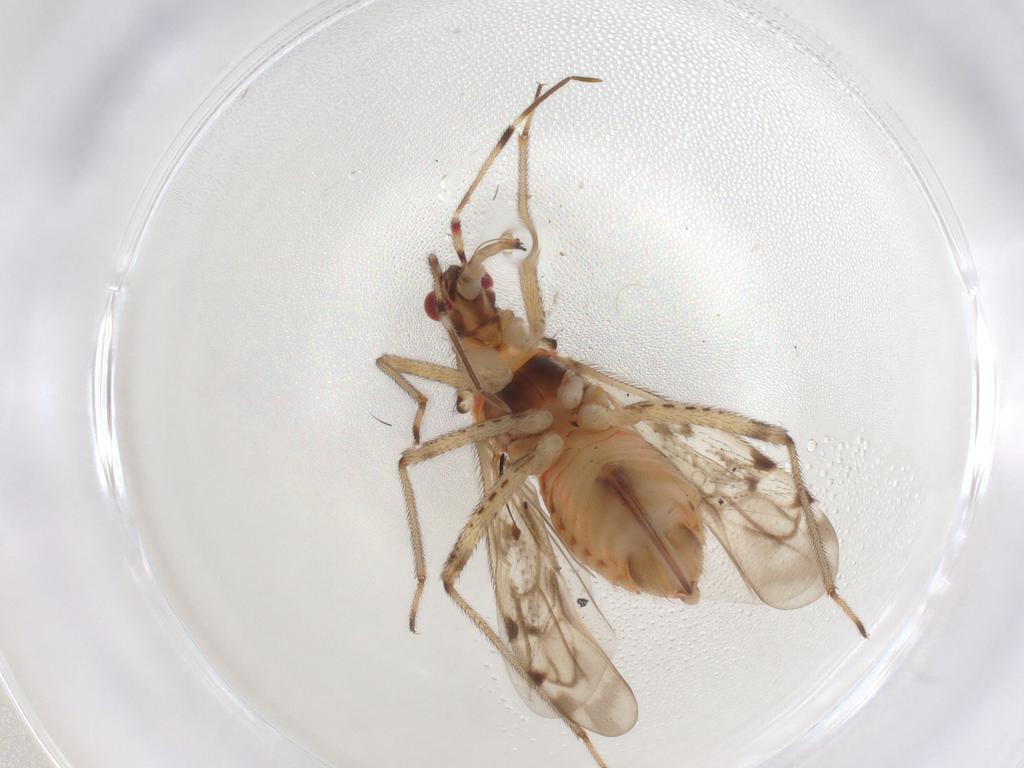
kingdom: Animalia
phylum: Arthropoda
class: Insecta
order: Hemiptera
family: Miridae
